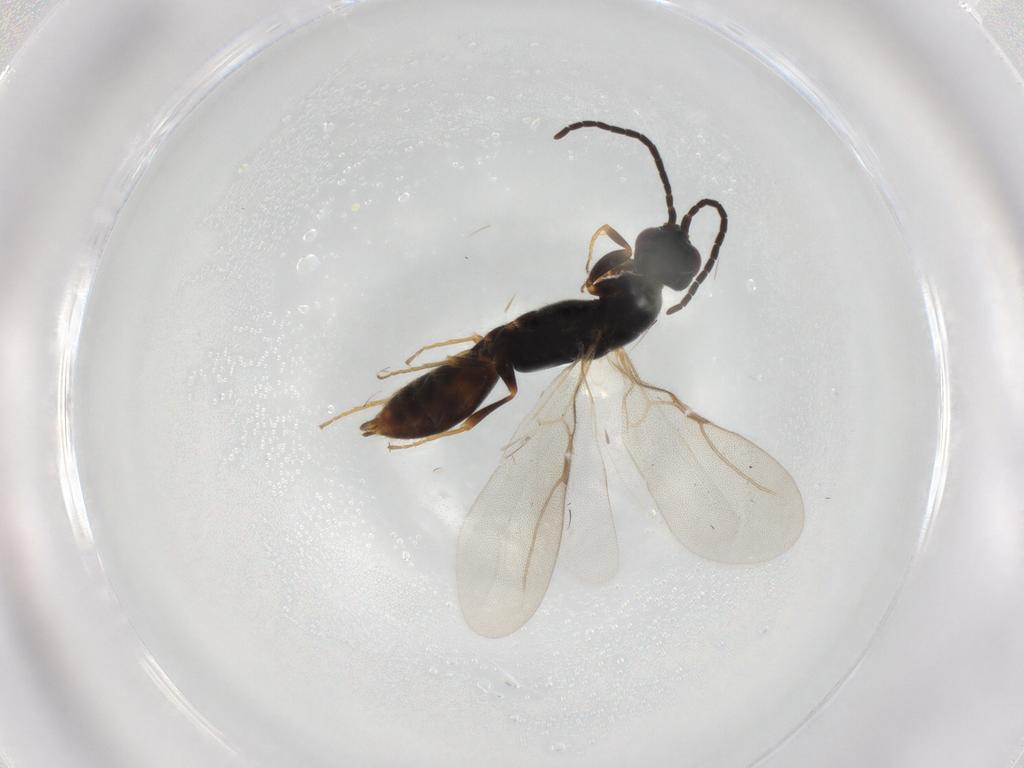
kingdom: Animalia
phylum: Arthropoda
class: Insecta
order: Hymenoptera
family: Bethylidae
